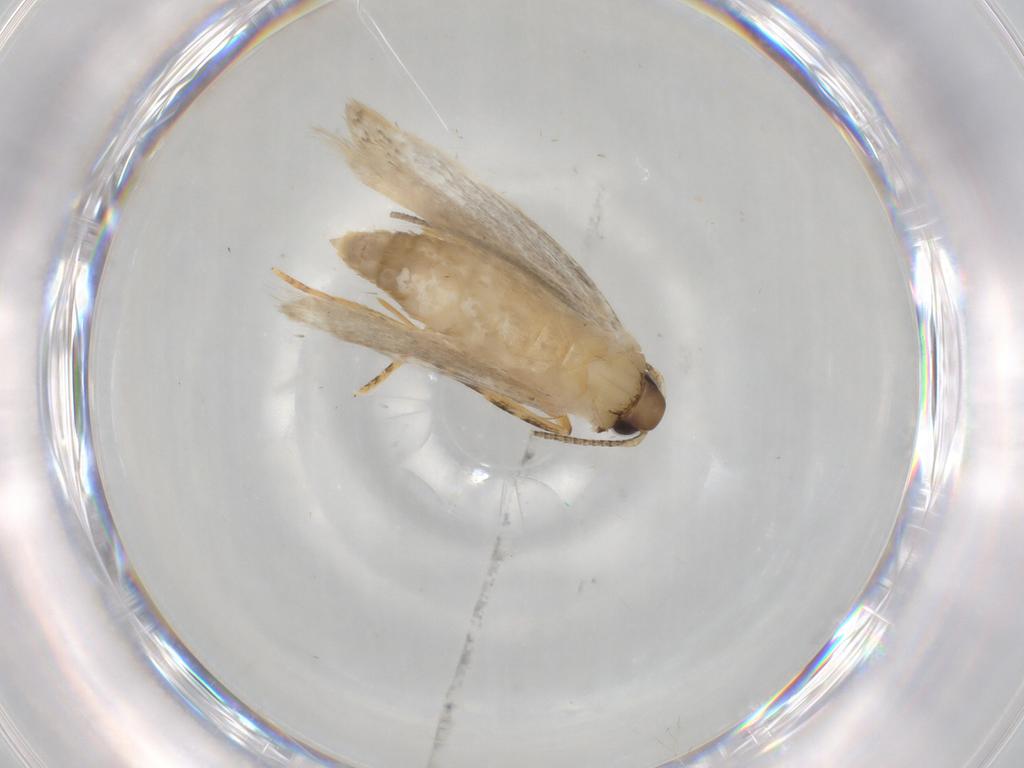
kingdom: Animalia
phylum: Arthropoda
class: Insecta
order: Lepidoptera
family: Autostichidae
